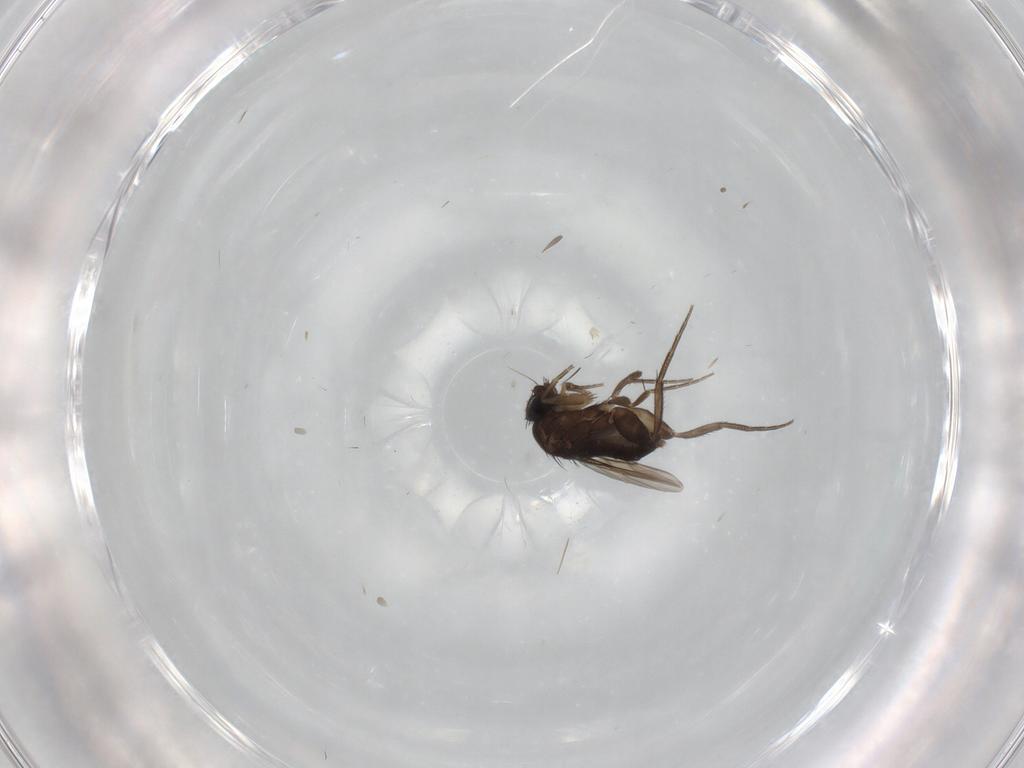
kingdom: Animalia
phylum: Arthropoda
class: Insecta
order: Diptera
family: Phoridae
